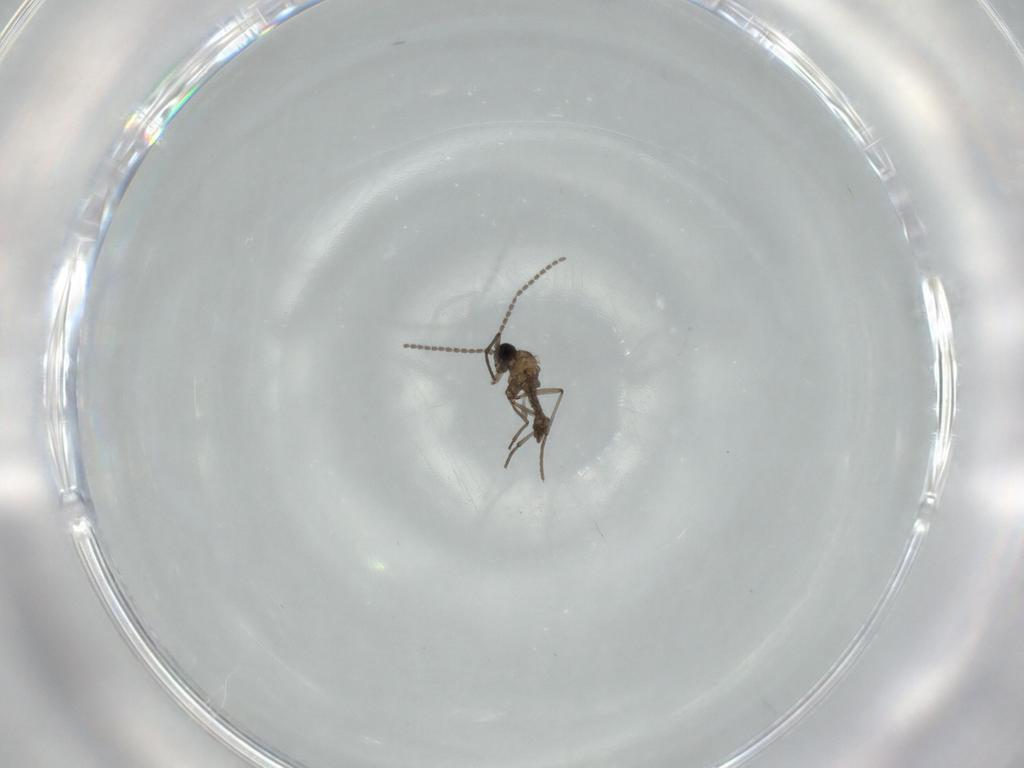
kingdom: Animalia
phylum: Arthropoda
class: Insecta
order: Diptera
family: Sciaridae
